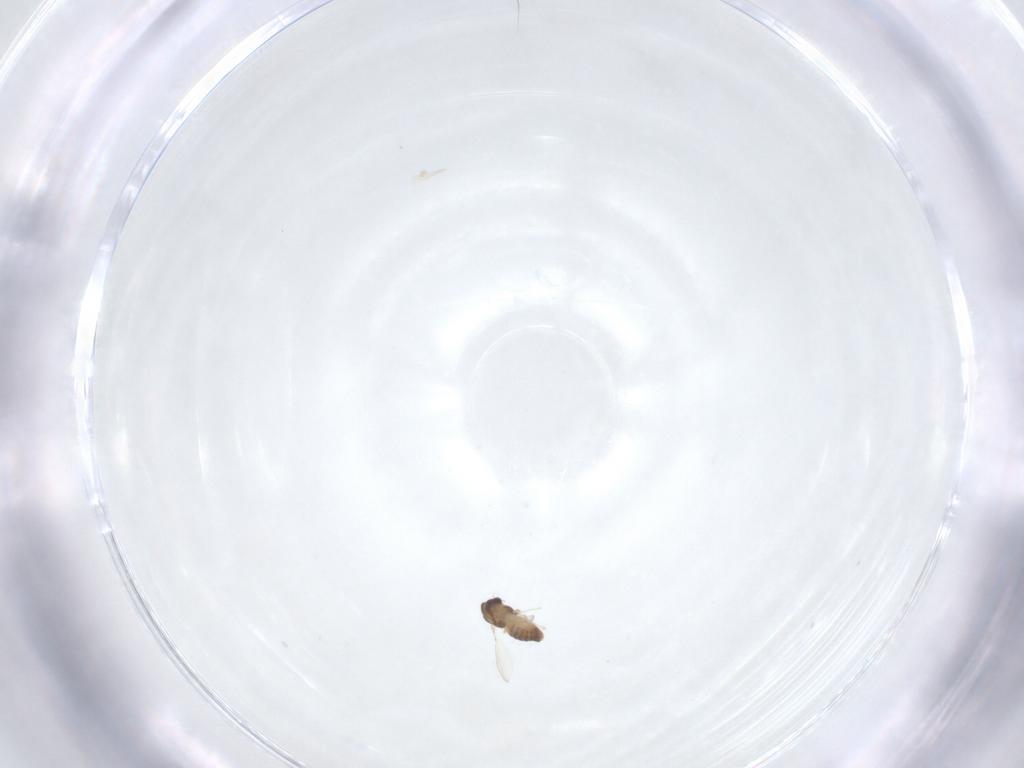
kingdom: Animalia
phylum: Arthropoda
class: Insecta
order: Diptera
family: Chironomidae
